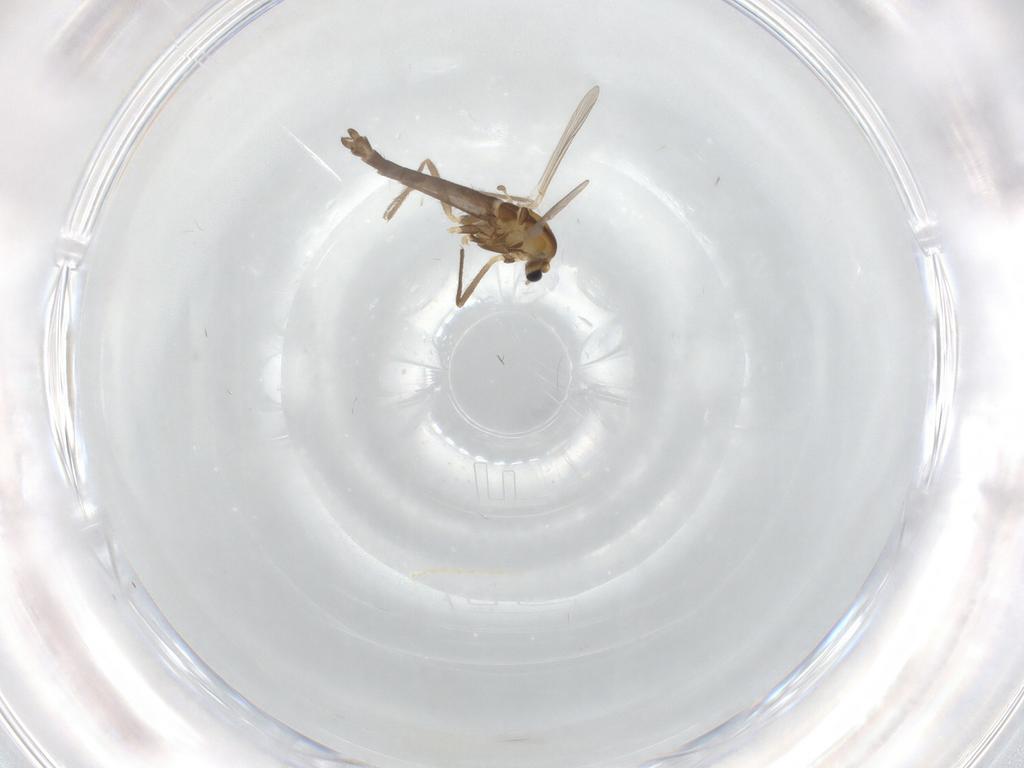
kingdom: Animalia
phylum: Arthropoda
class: Insecta
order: Diptera
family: Chironomidae
